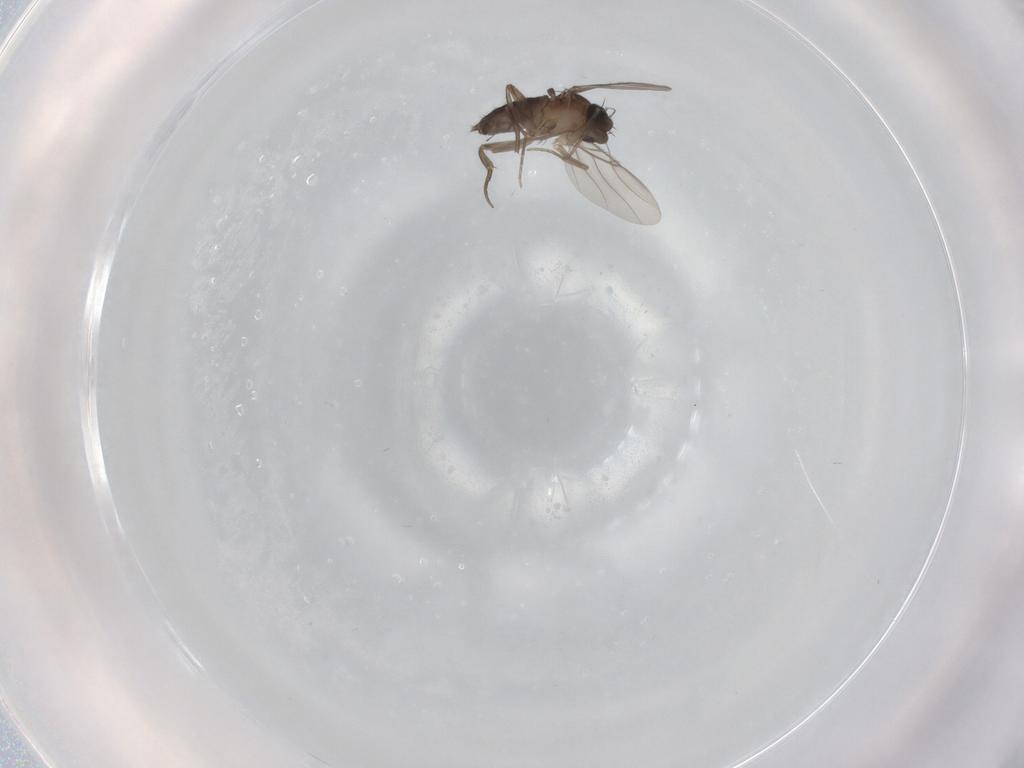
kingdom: Animalia
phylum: Arthropoda
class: Insecta
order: Diptera
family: Phoridae
